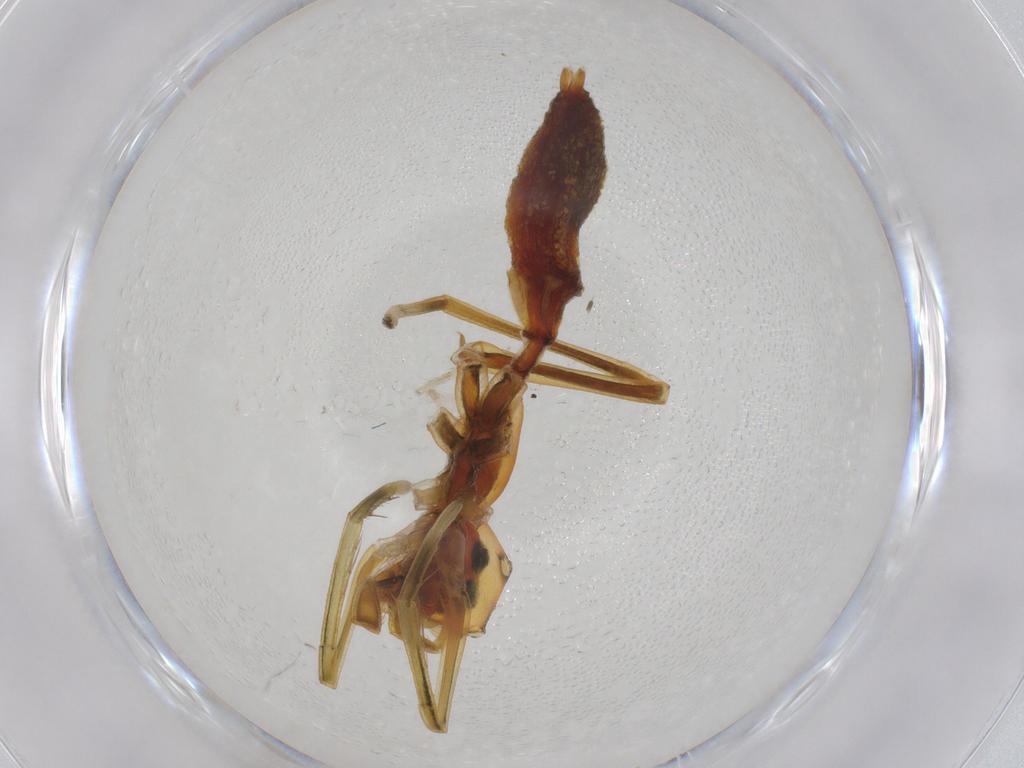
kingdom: Animalia
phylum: Arthropoda
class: Arachnida
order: Araneae
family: Oxyopidae
